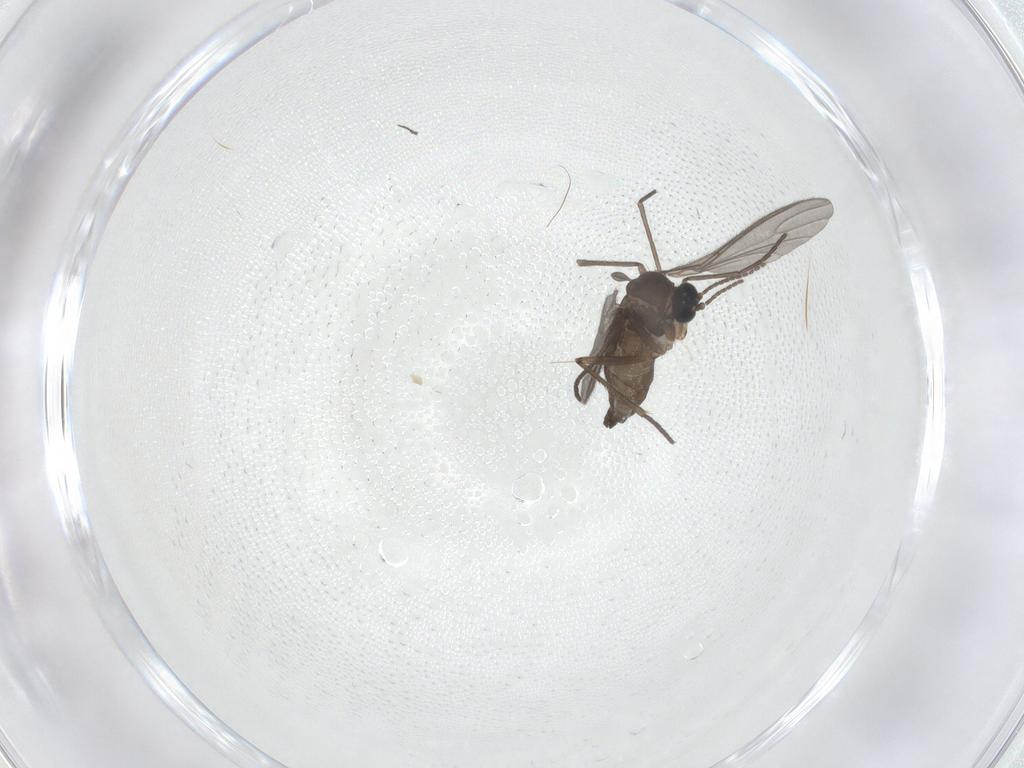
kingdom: Animalia
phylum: Arthropoda
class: Insecta
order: Diptera
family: Sciaridae
